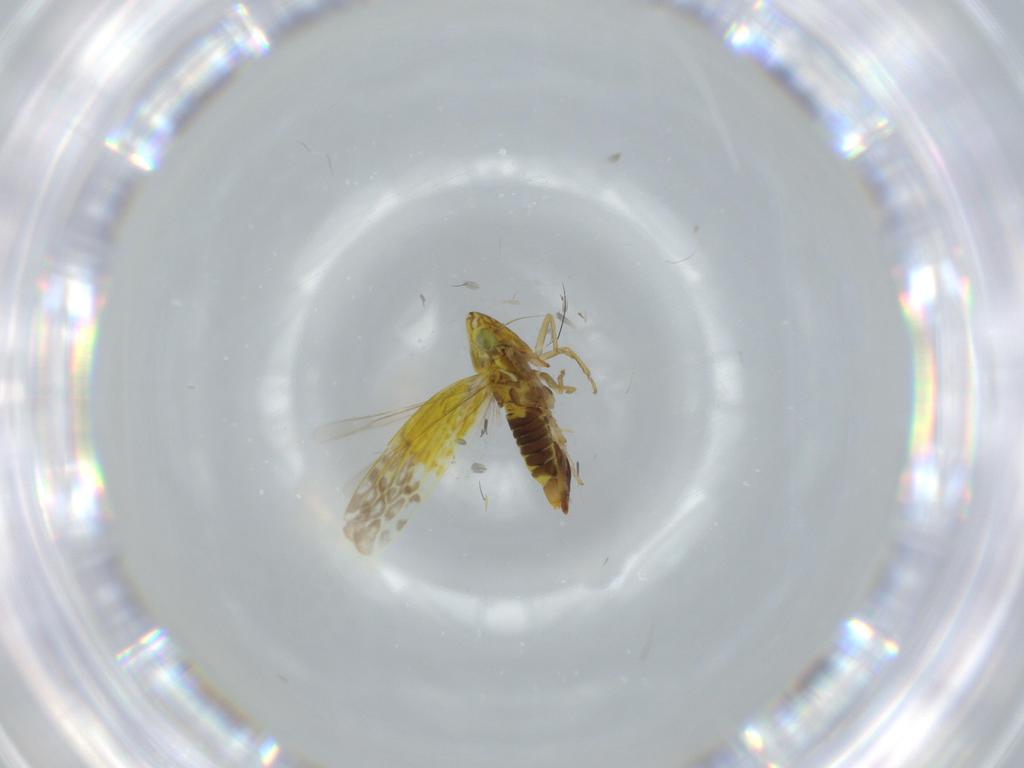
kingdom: Animalia
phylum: Arthropoda
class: Insecta
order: Hemiptera
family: Cicadellidae
